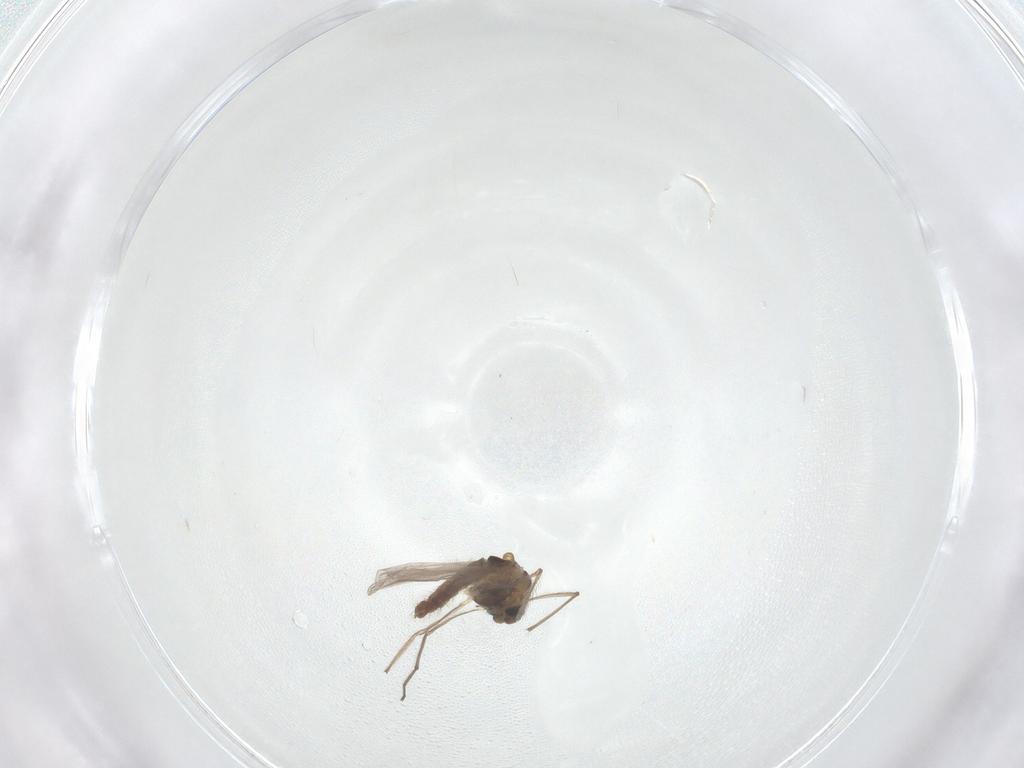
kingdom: Animalia
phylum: Arthropoda
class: Insecta
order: Diptera
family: Chironomidae
